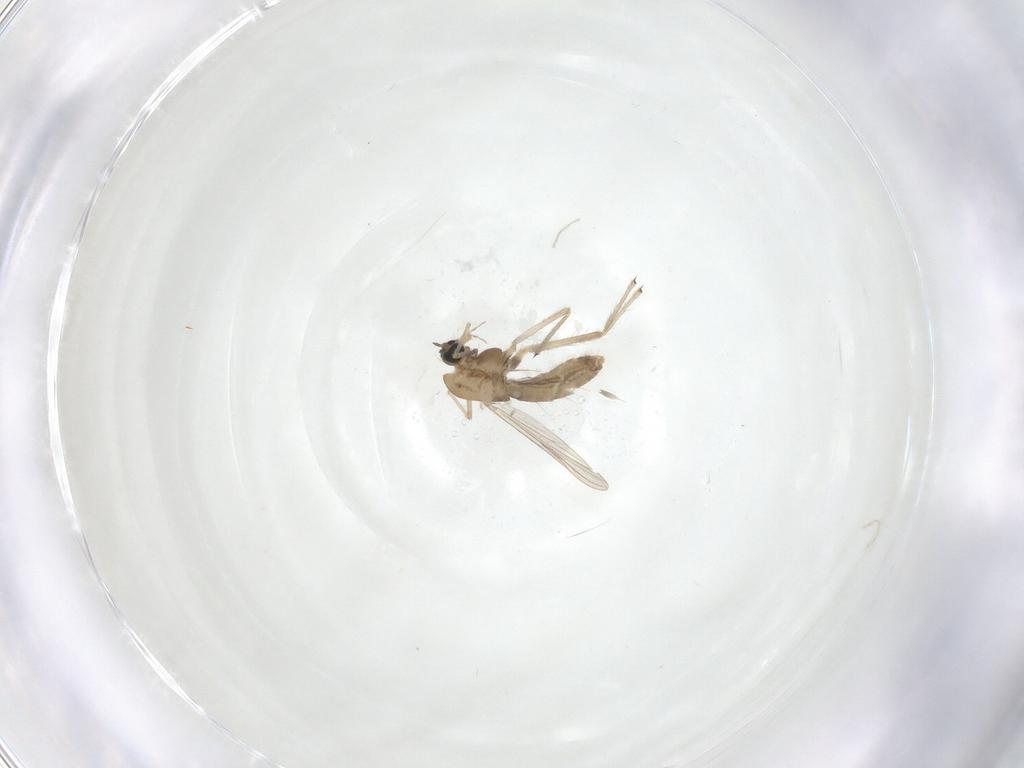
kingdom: Animalia
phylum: Arthropoda
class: Insecta
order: Diptera
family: Chironomidae
